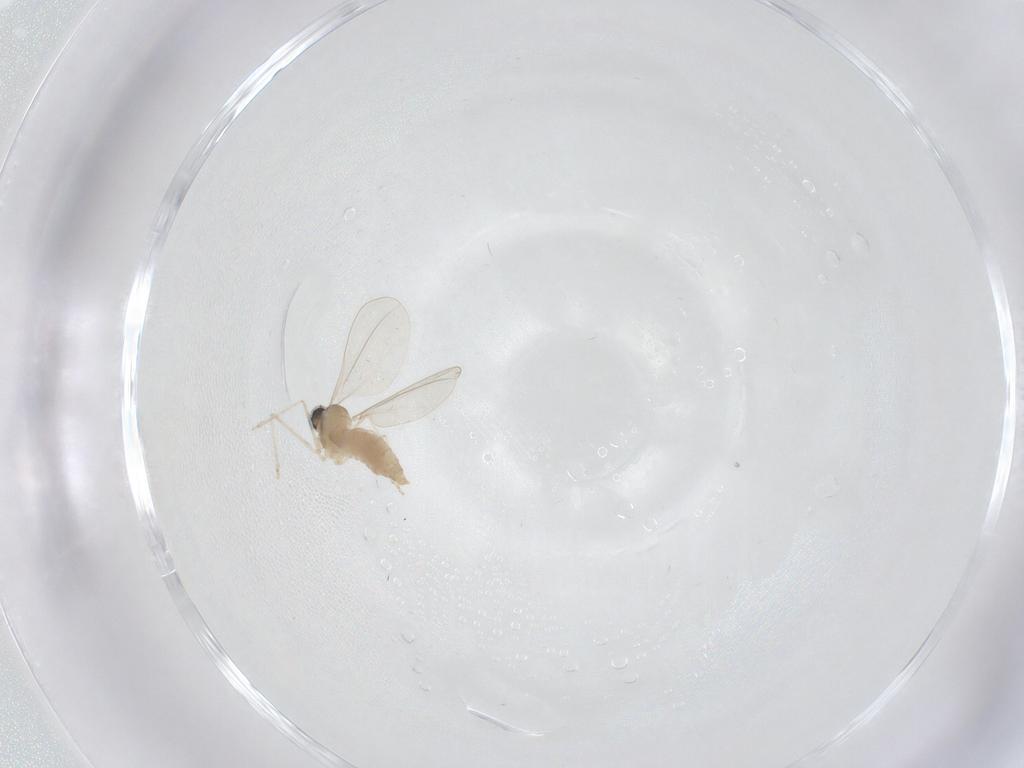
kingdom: Animalia
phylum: Arthropoda
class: Insecta
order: Diptera
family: Cecidomyiidae
